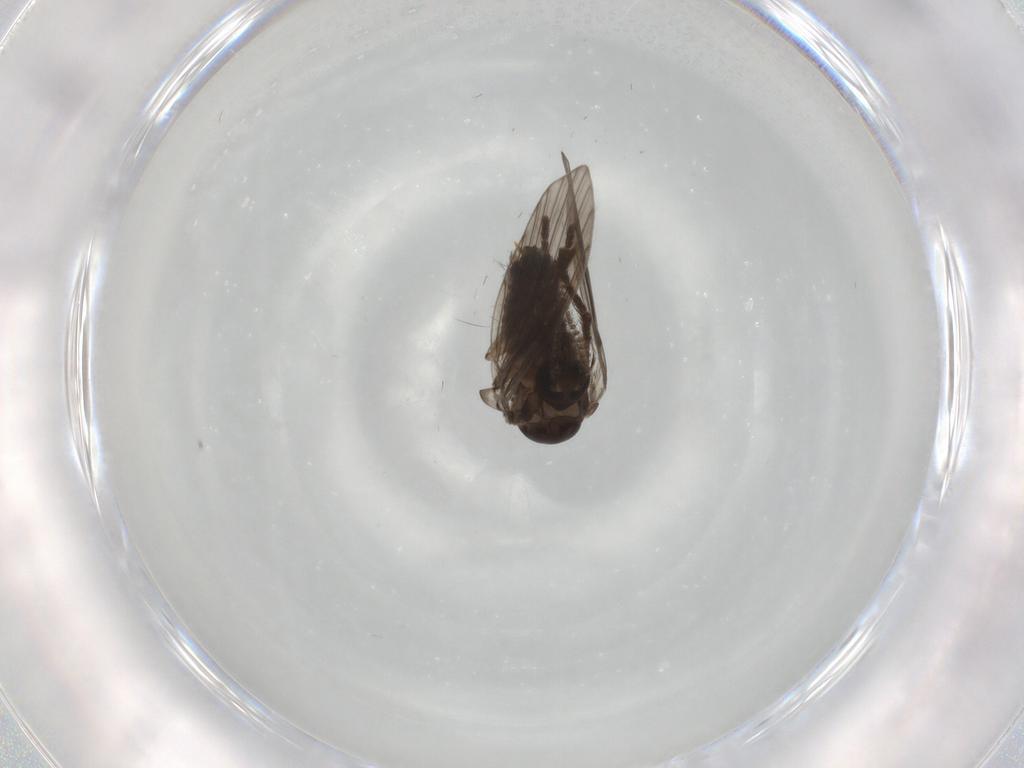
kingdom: Animalia
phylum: Arthropoda
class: Insecta
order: Diptera
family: Psychodidae
